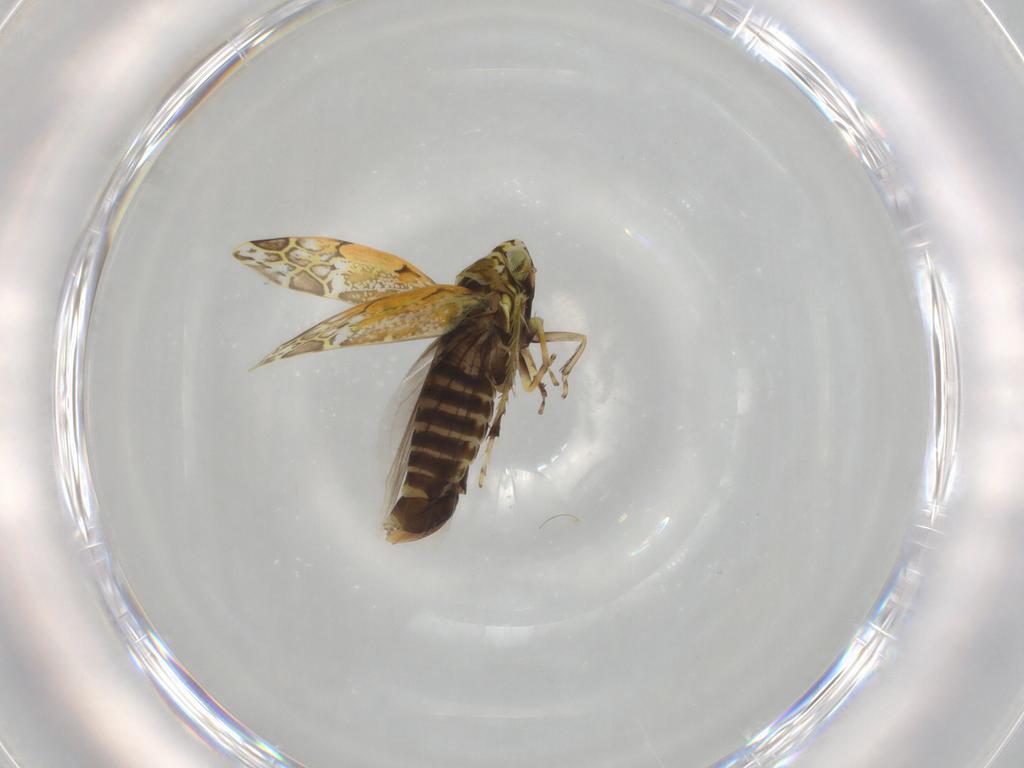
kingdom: Animalia
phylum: Arthropoda
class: Insecta
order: Hemiptera
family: Cicadellidae
